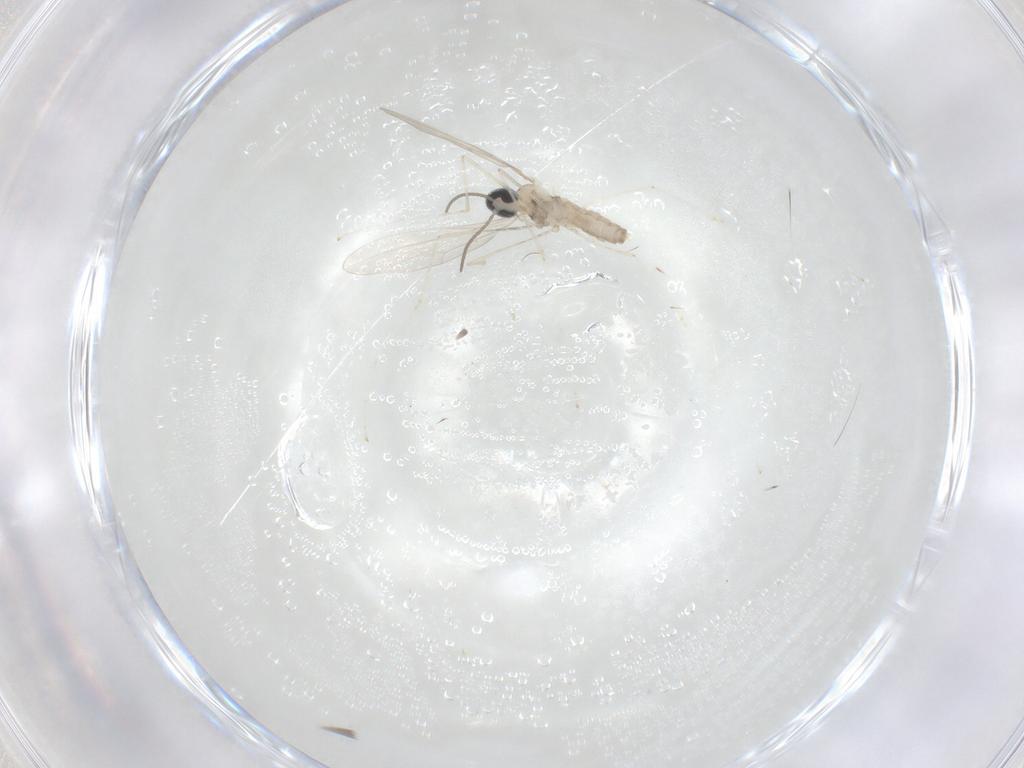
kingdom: Animalia
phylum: Arthropoda
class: Insecta
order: Diptera
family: Cecidomyiidae
